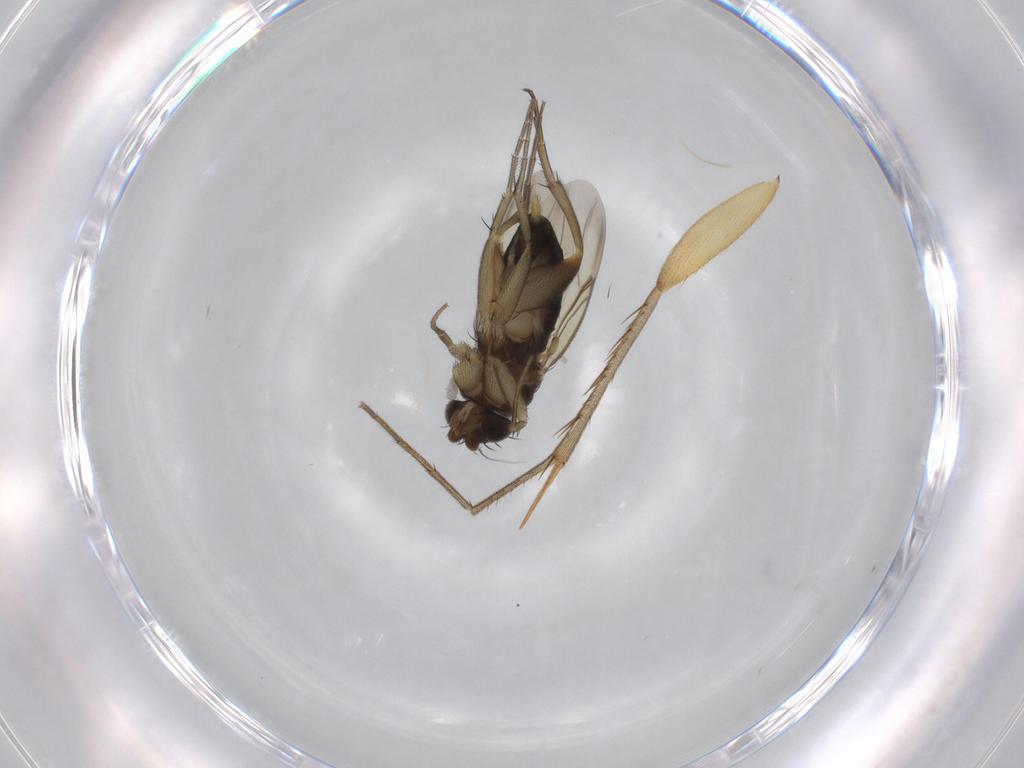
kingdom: Animalia
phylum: Arthropoda
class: Insecta
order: Diptera
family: Phoridae
